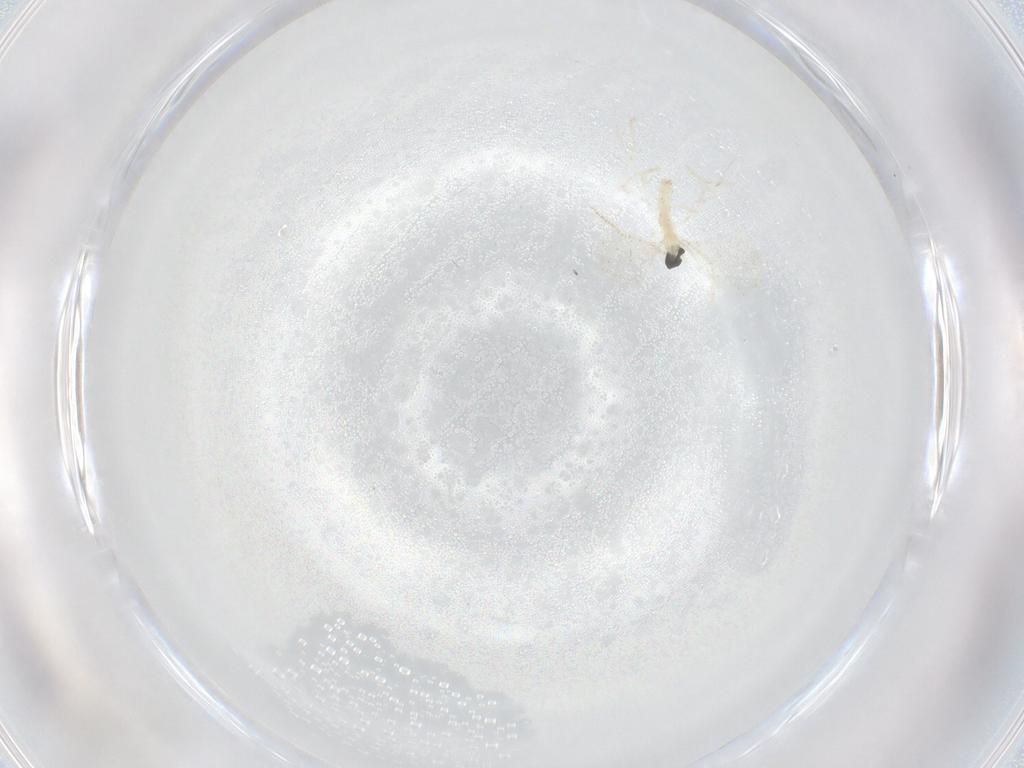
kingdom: Animalia
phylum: Arthropoda
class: Insecta
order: Diptera
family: Cecidomyiidae
